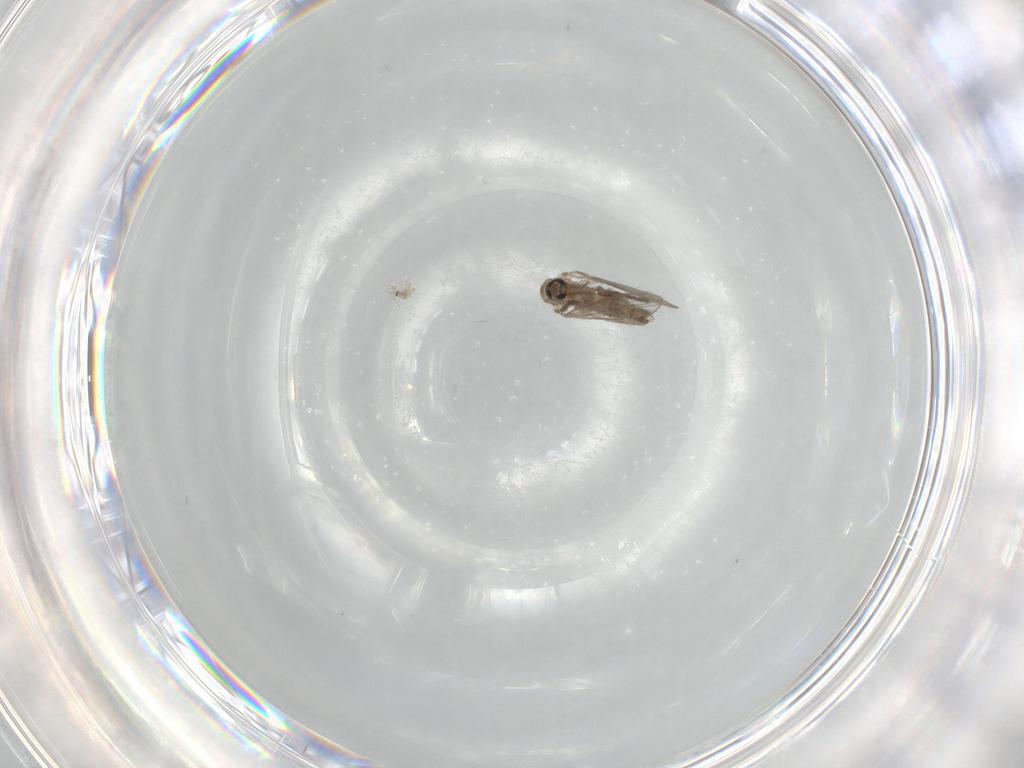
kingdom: Animalia
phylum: Arthropoda
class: Insecta
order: Diptera
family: Psychodidae
